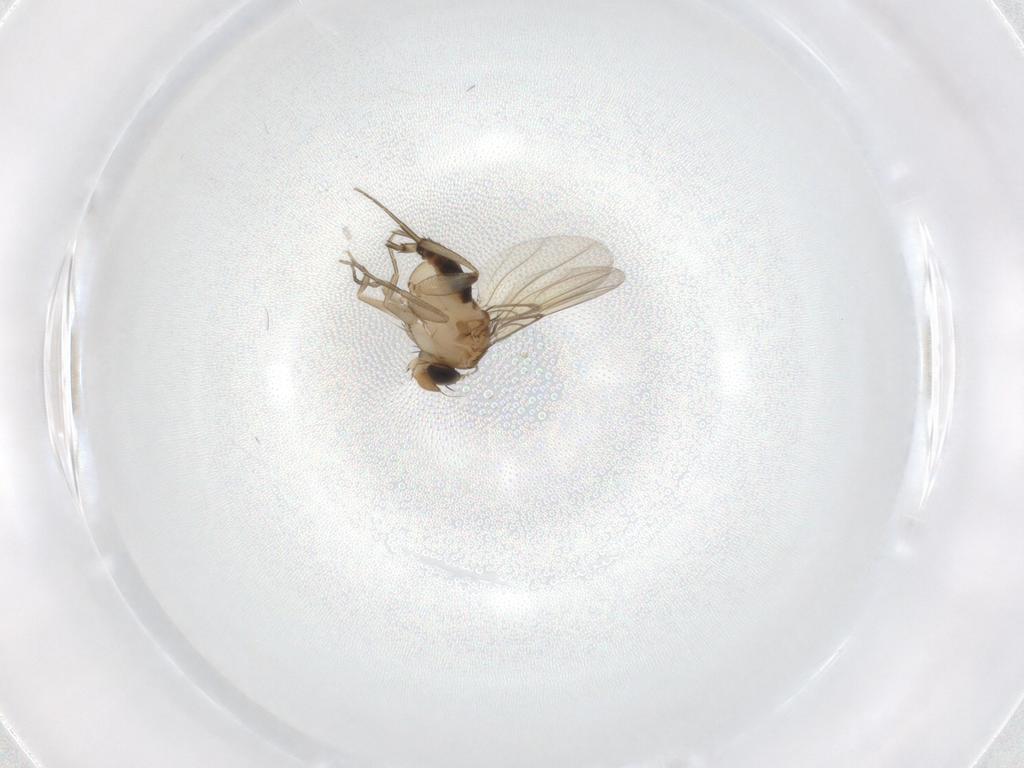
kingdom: Animalia
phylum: Arthropoda
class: Insecta
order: Diptera
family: Cecidomyiidae
